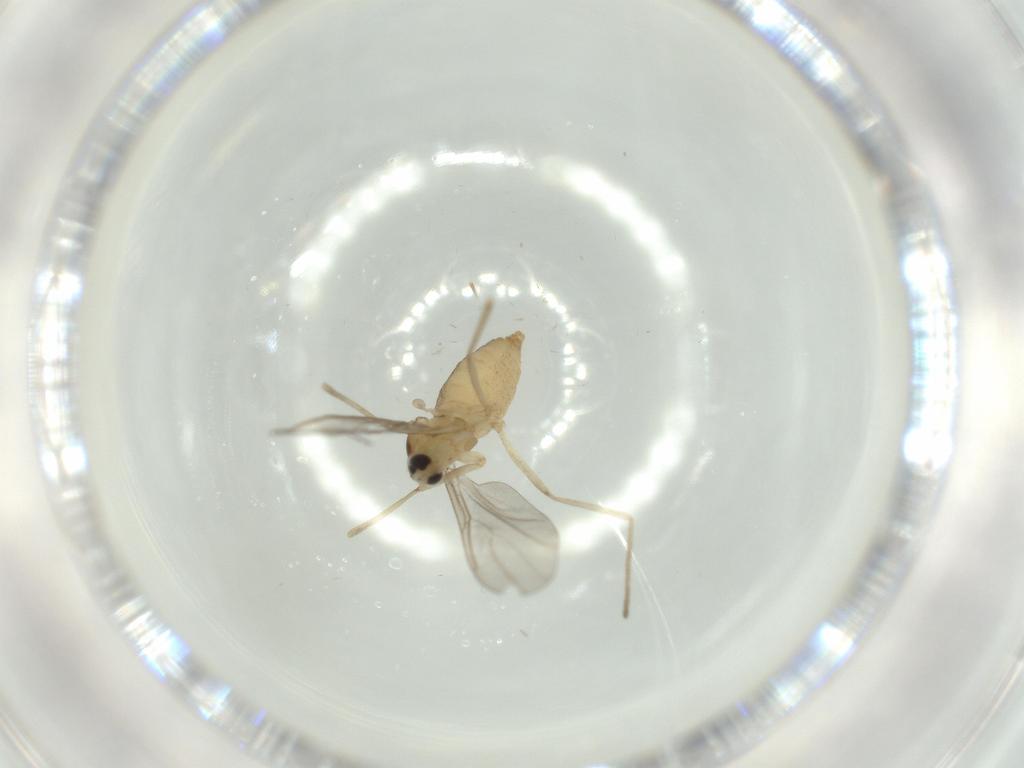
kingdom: Animalia
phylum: Arthropoda
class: Insecta
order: Diptera
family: Cecidomyiidae
